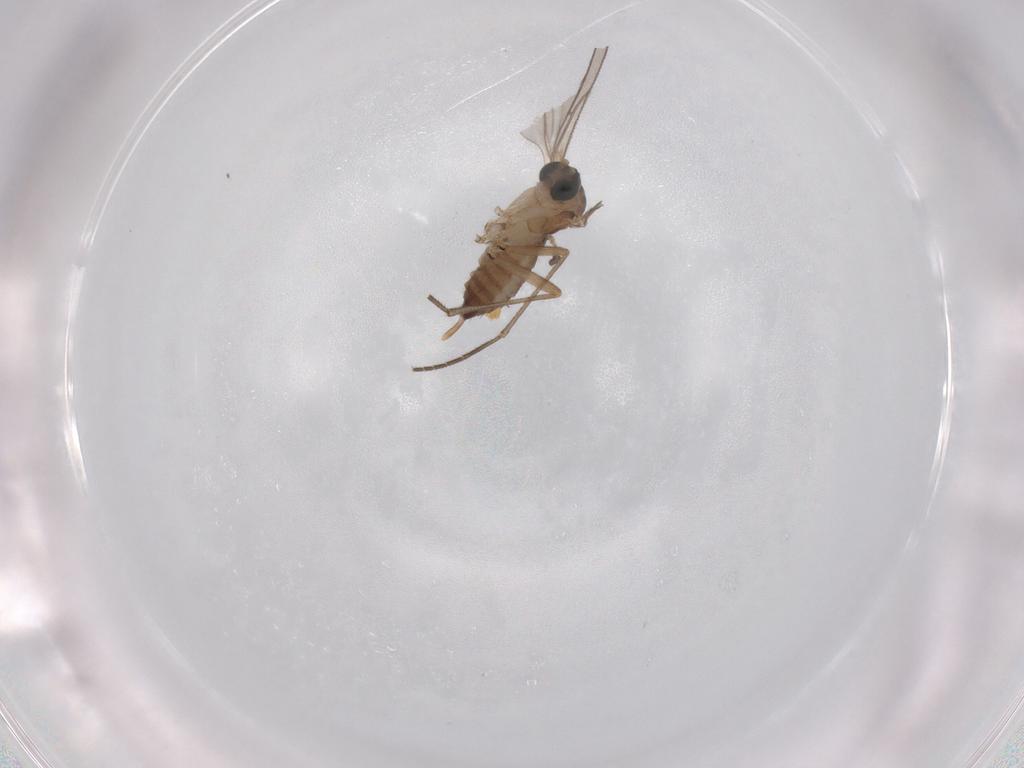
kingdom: Animalia
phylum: Arthropoda
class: Insecta
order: Diptera
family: Sciaridae
